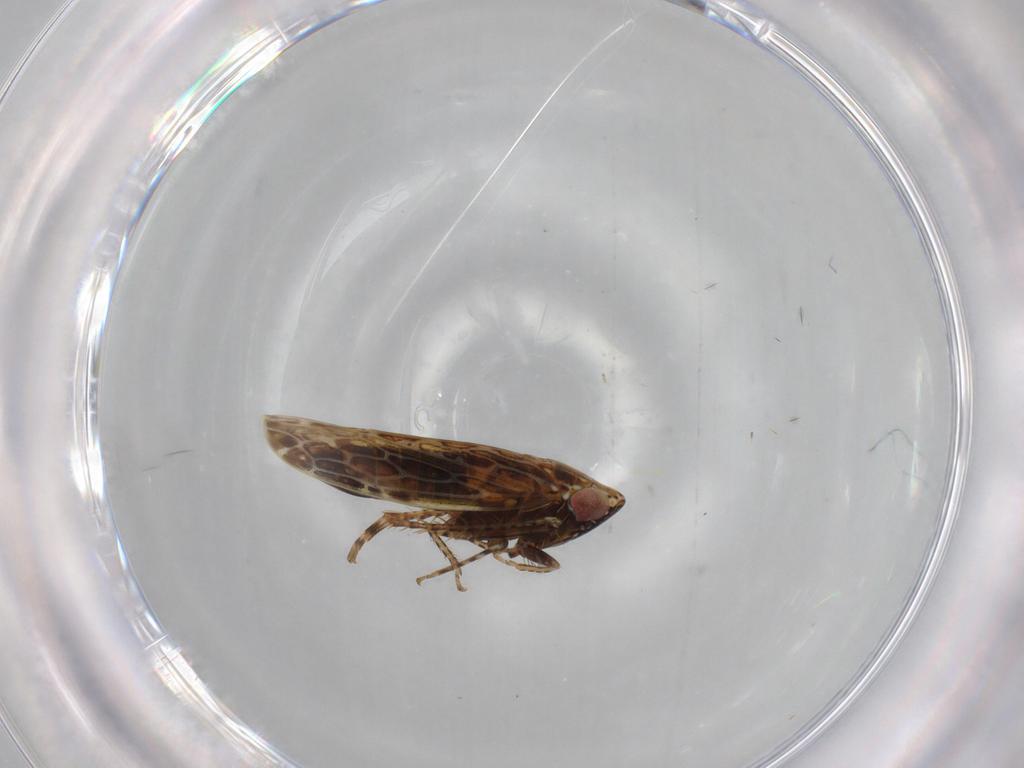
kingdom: Animalia
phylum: Arthropoda
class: Insecta
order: Hemiptera
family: Cicadellidae
